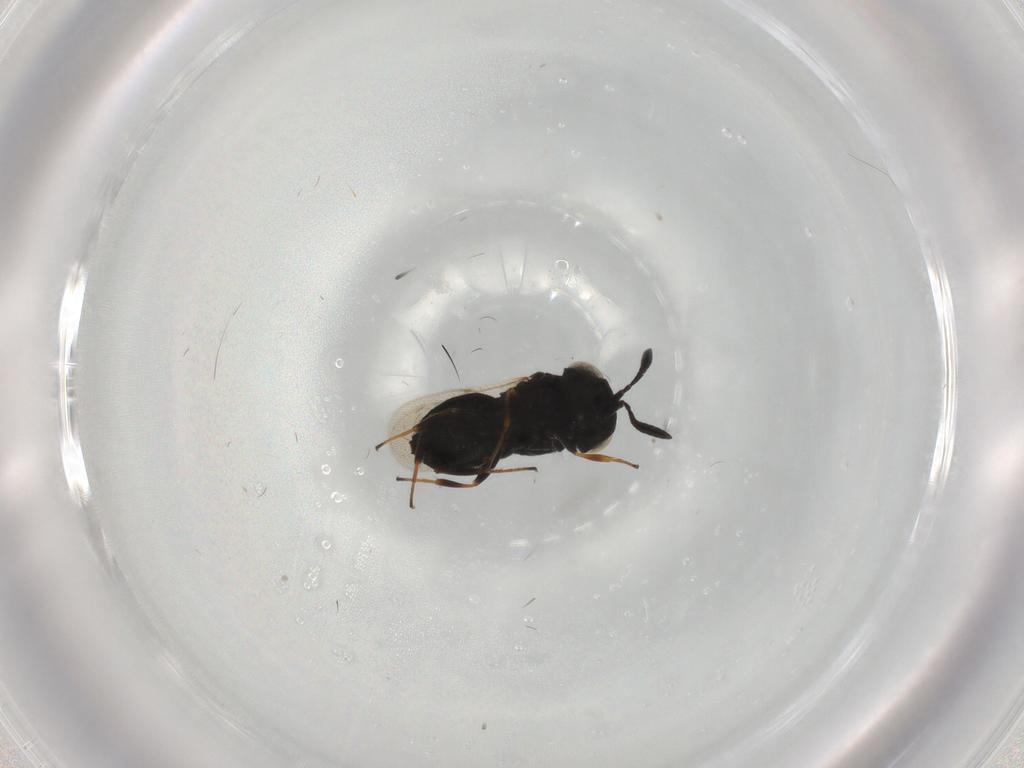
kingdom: Animalia
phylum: Arthropoda
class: Insecta
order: Hymenoptera
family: Scelionidae
